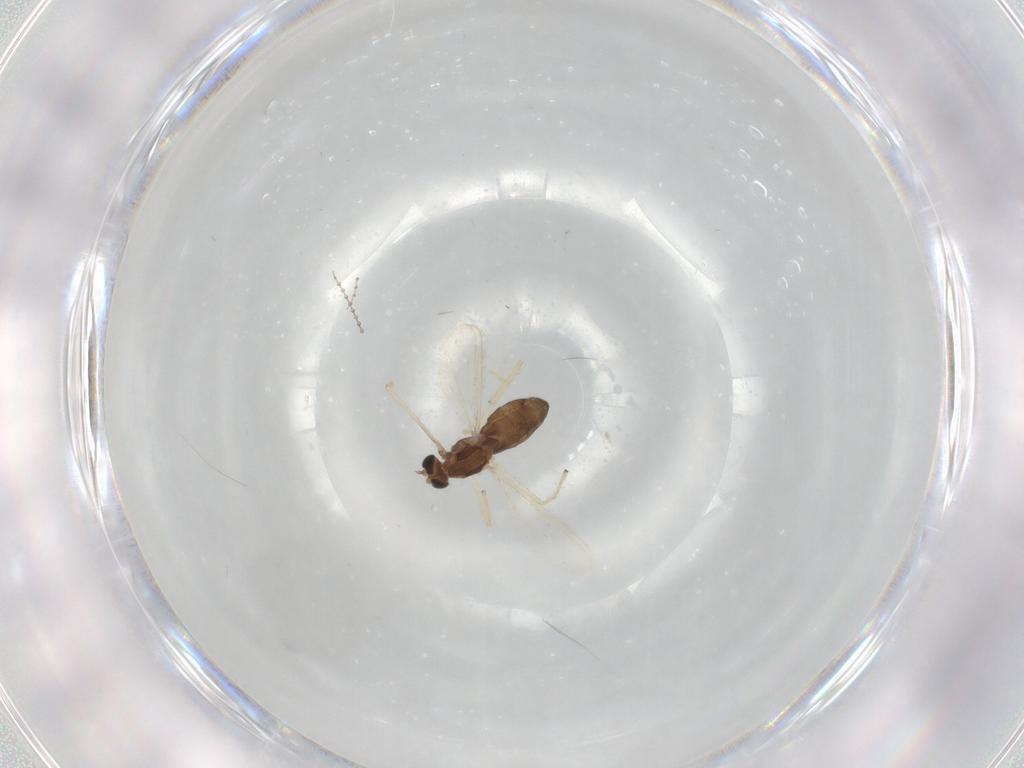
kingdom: Animalia
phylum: Arthropoda
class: Insecta
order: Diptera
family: Chironomidae
